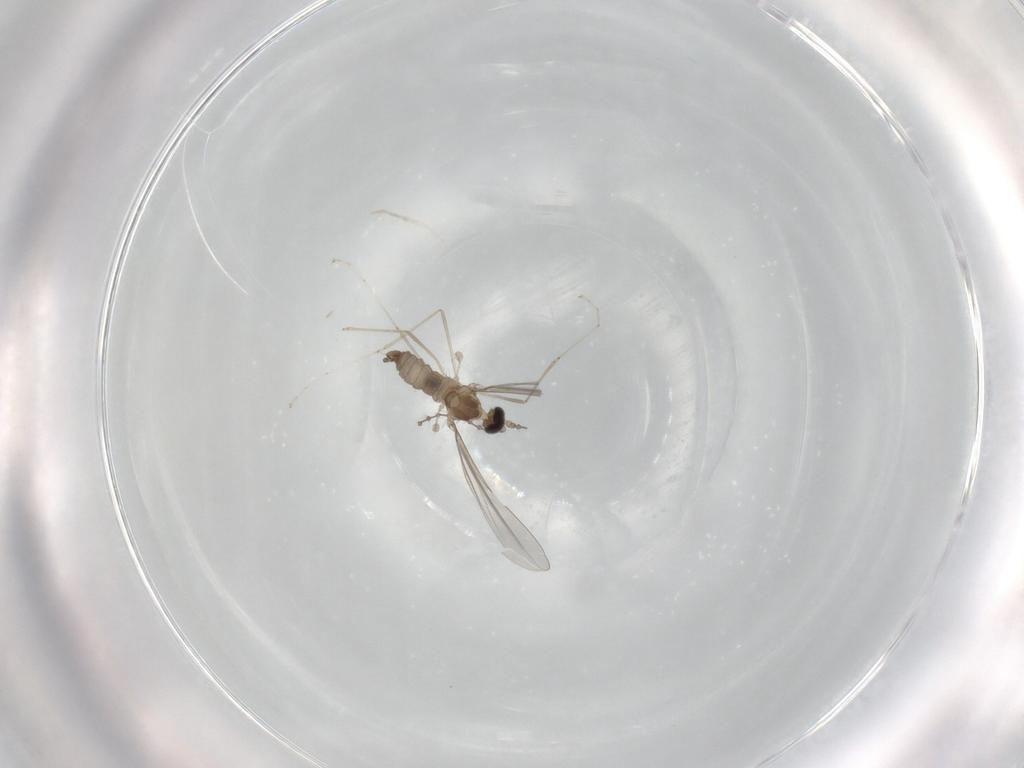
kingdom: Animalia
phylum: Arthropoda
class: Insecta
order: Diptera
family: Cecidomyiidae
